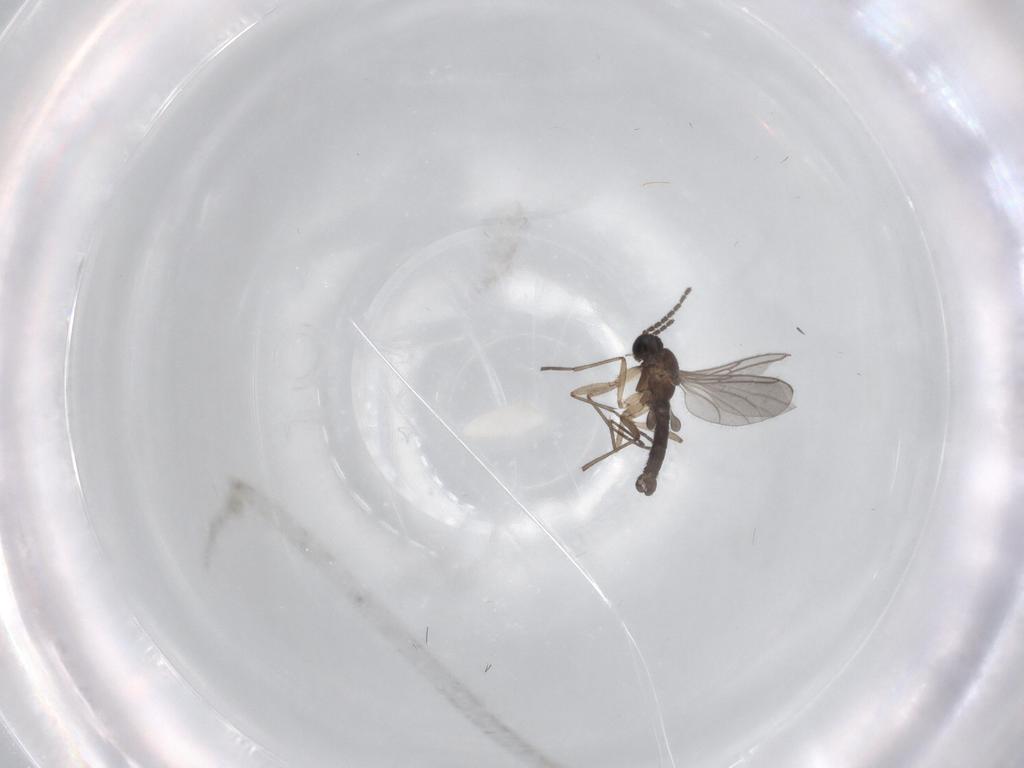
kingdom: Animalia
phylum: Arthropoda
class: Insecta
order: Diptera
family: Sciaridae
